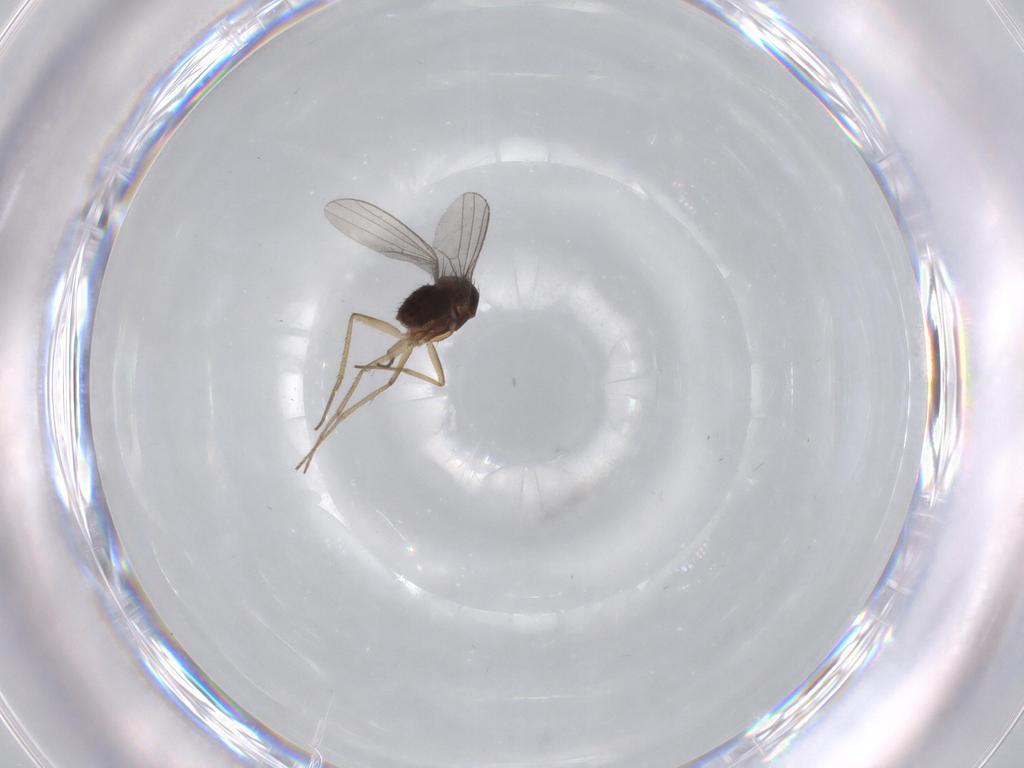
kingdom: Animalia
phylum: Arthropoda
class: Insecta
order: Diptera
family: Dolichopodidae
